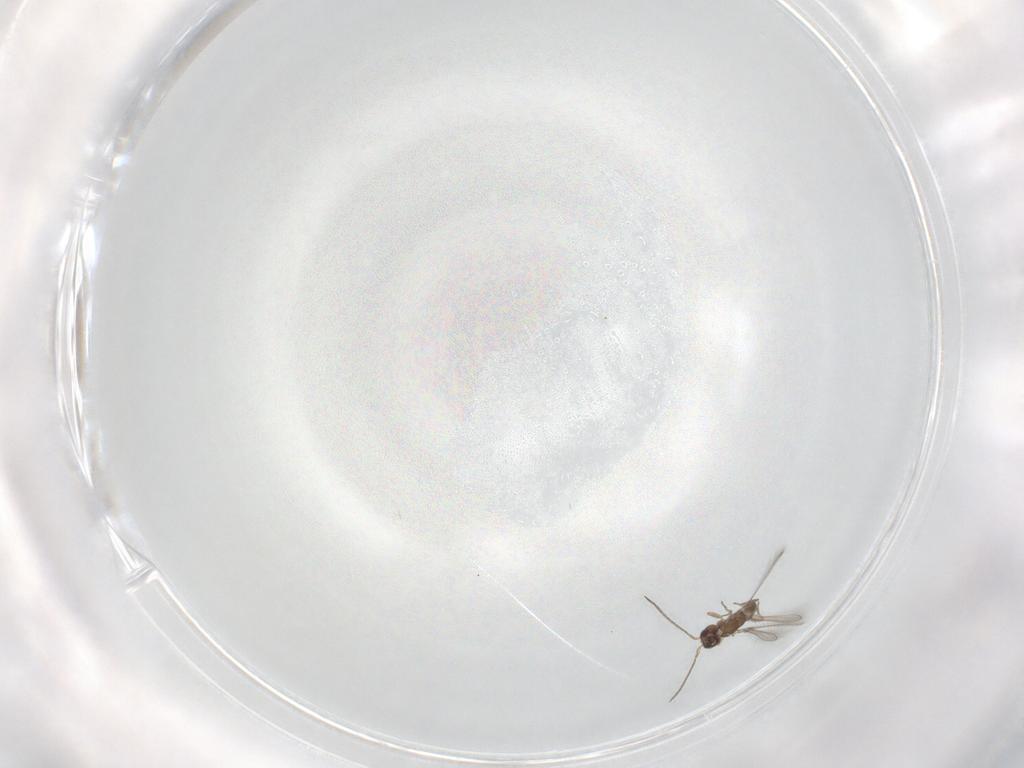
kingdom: Animalia
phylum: Arthropoda
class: Insecta
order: Hymenoptera
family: Mymaridae
